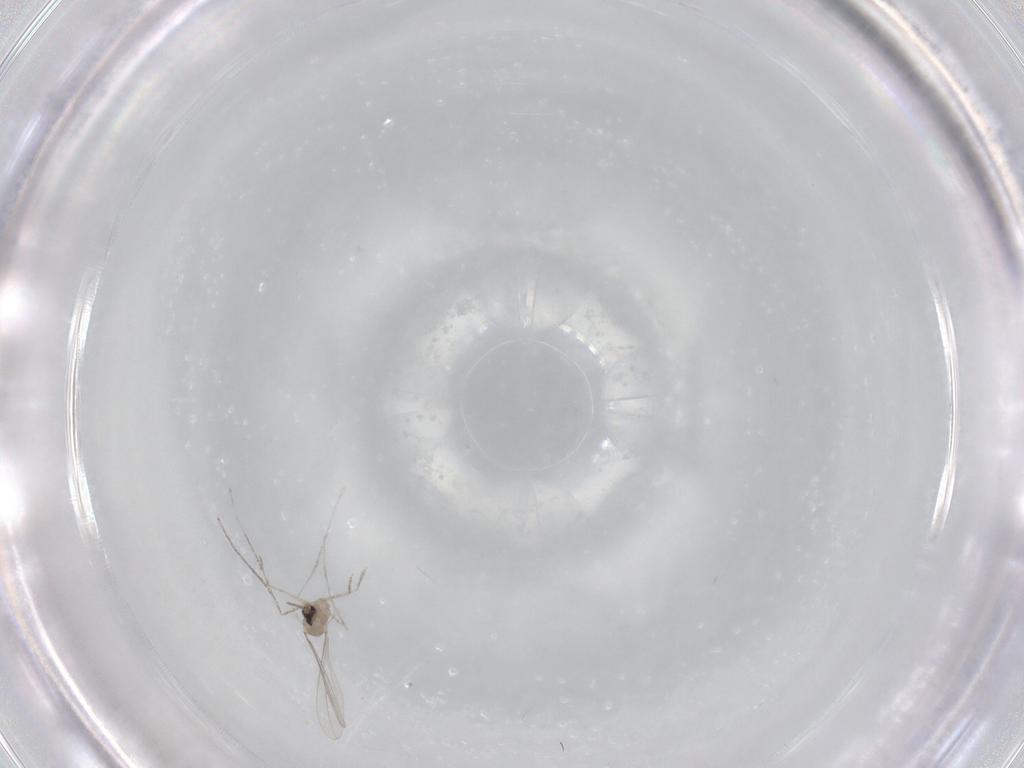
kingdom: Animalia
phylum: Arthropoda
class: Insecta
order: Diptera
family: Cecidomyiidae
